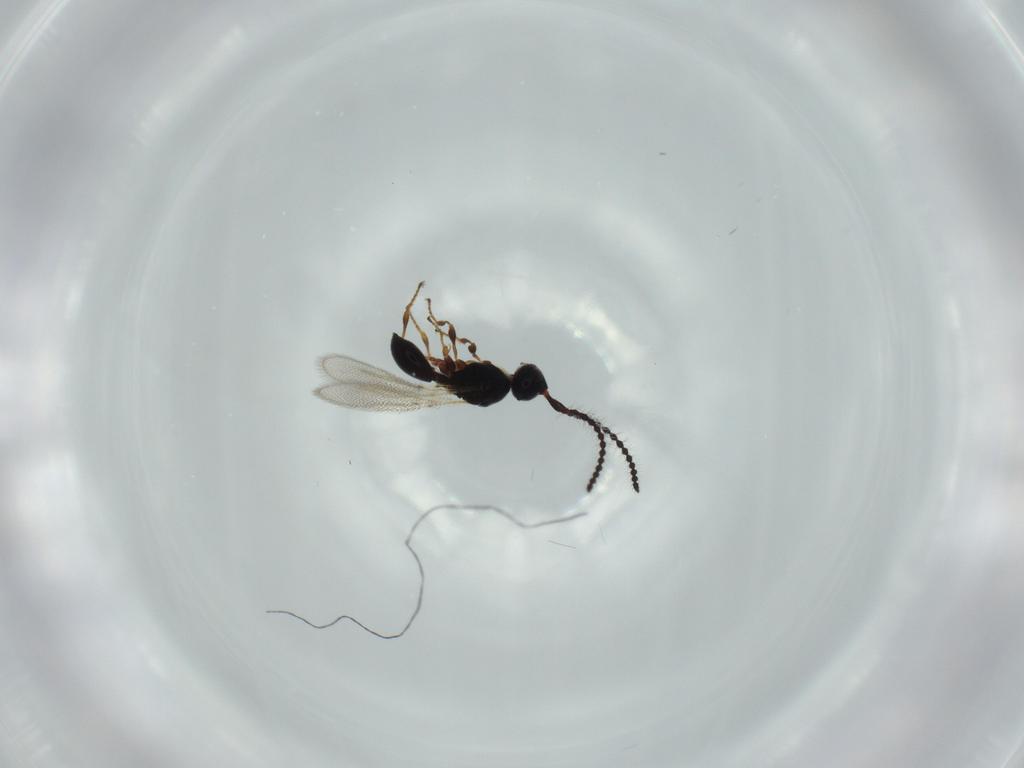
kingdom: Animalia
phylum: Arthropoda
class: Insecta
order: Hymenoptera
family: Diapriidae
